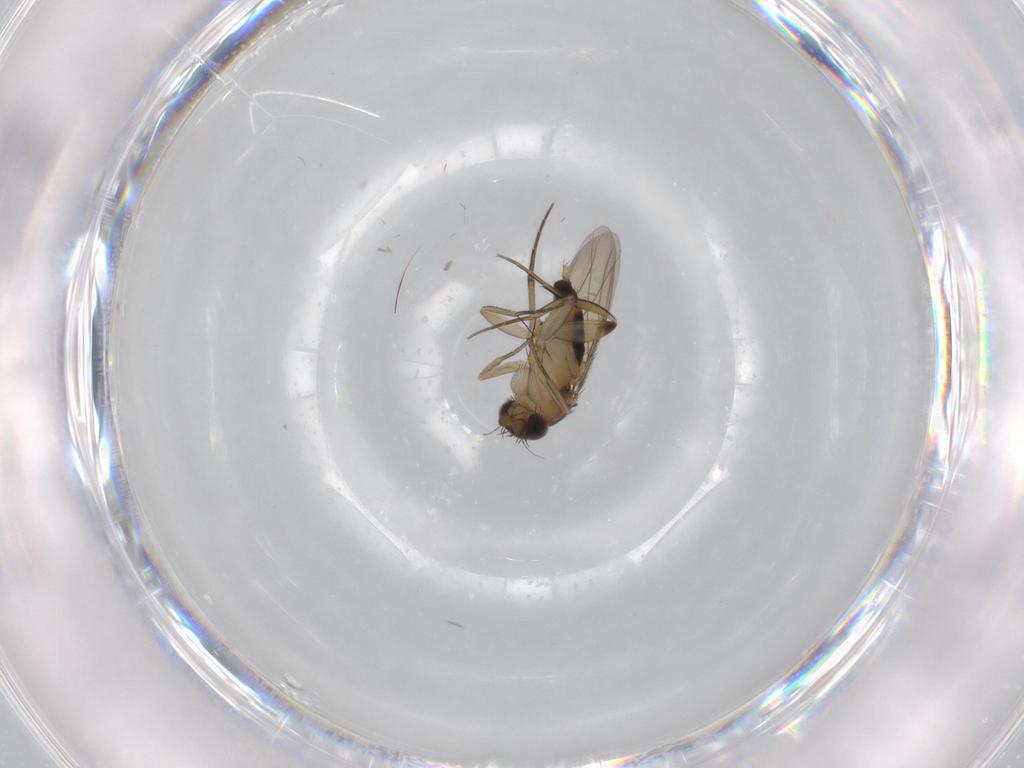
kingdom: Animalia
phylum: Arthropoda
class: Insecta
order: Diptera
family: Phoridae
